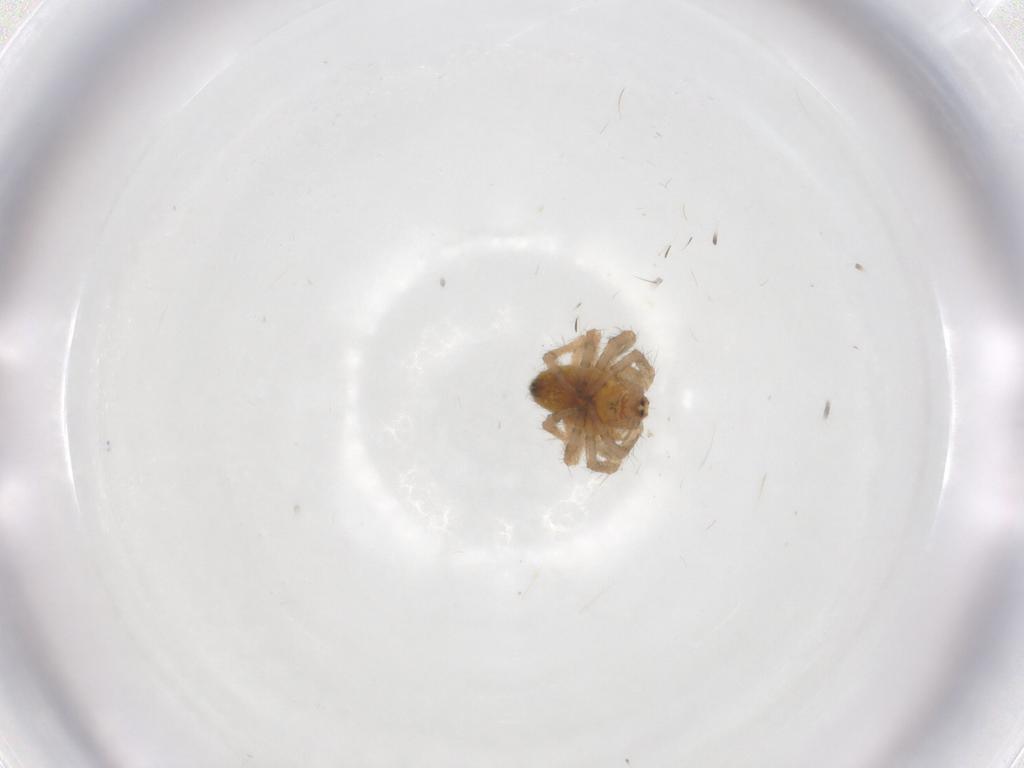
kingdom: Animalia
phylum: Arthropoda
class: Arachnida
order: Araneae
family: Araneidae
